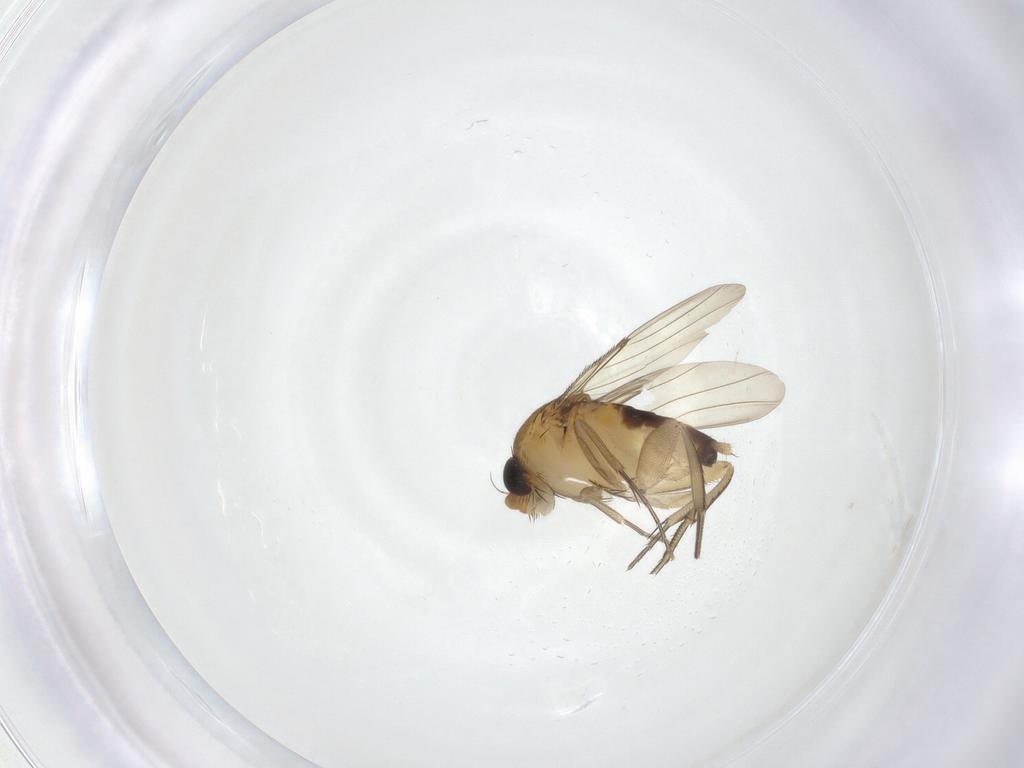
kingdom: Animalia
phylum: Arthropoda
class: Insecta
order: Diptera
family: Phoridae
